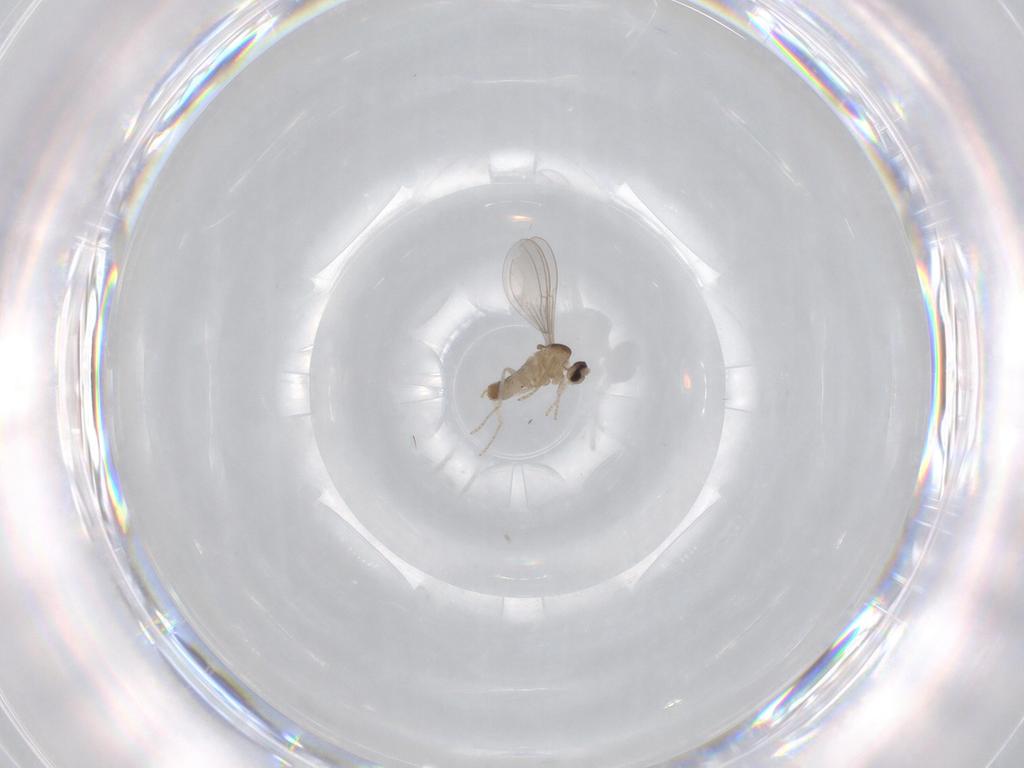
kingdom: Animalia
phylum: Arthropoda
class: Insecta
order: Diptera
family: Cecidomyiidae
